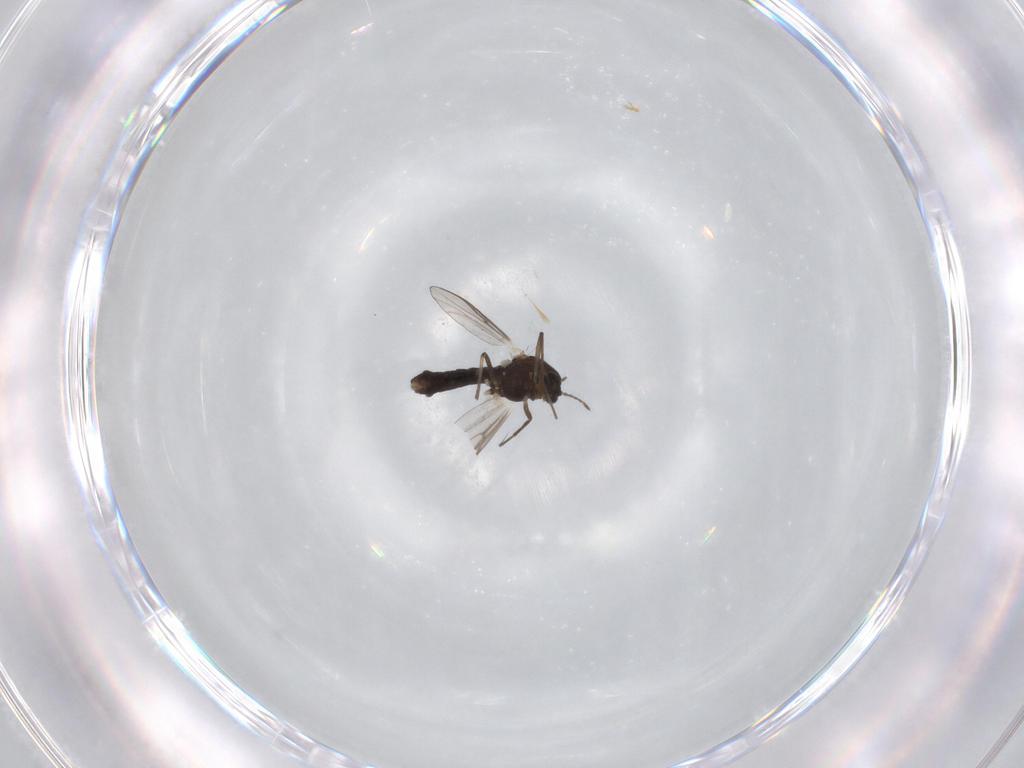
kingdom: Animalia
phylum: Arthropoda
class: Insecta
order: Diptera
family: Chironomidae
